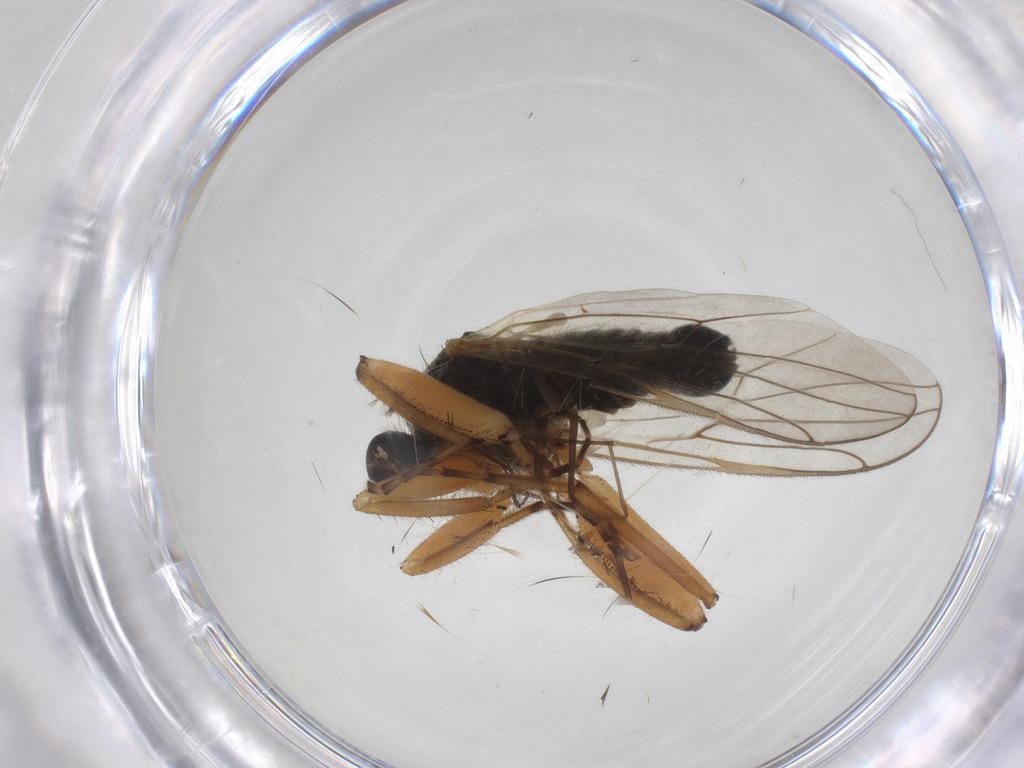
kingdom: Animalia
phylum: Arthropoda
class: Insecta
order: Diptera
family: Hybotidae
